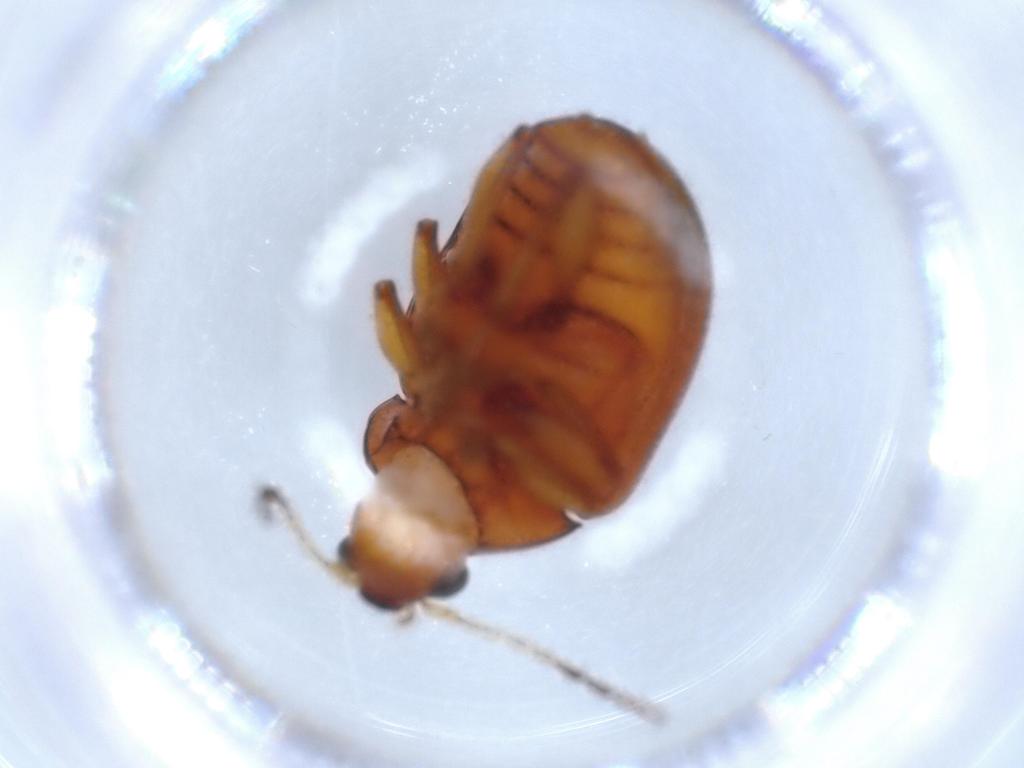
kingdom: Animalia
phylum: Arthropoda
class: Insecta
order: Coleoptera
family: Chrysomelidae
